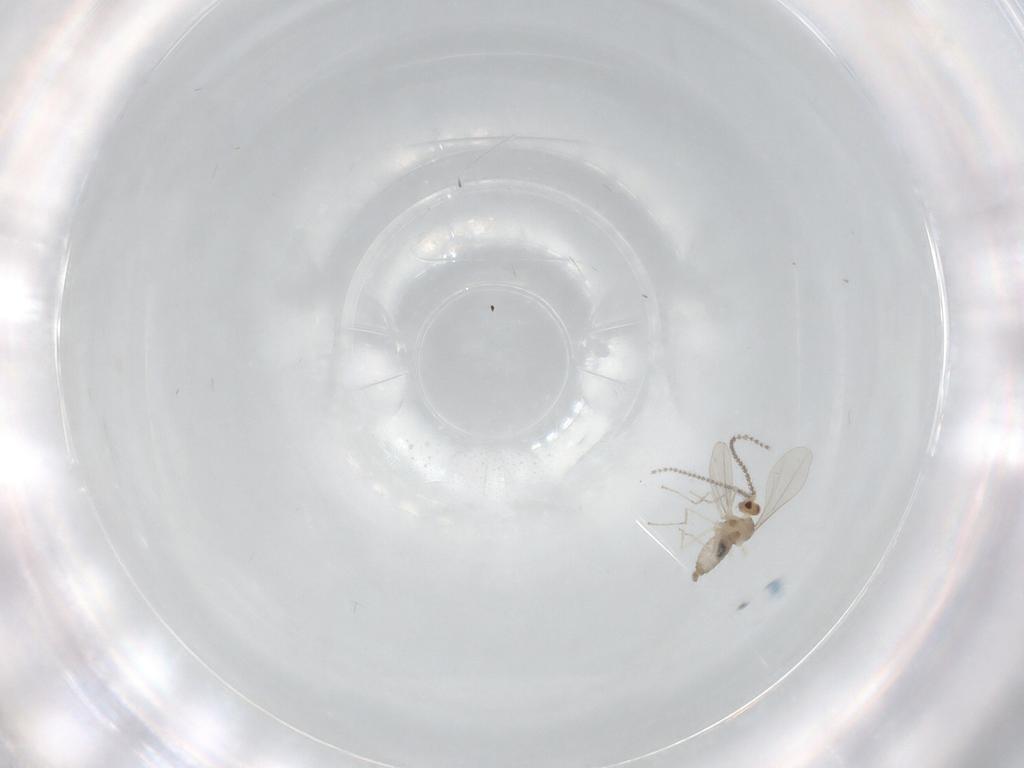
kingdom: Animalia
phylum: Arthropoda
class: Insecta
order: Diptera
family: Cecidomyiidae
